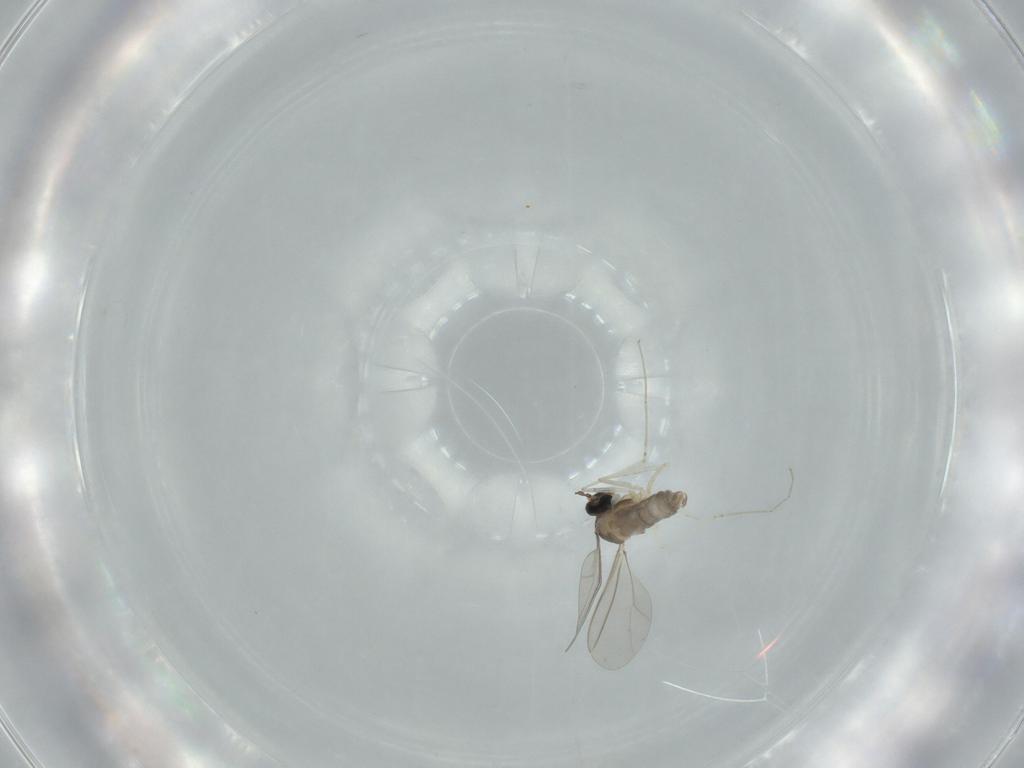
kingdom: Animalia
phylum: Arthropoda
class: Insecta
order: Diptera
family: Cecidomyiidae
